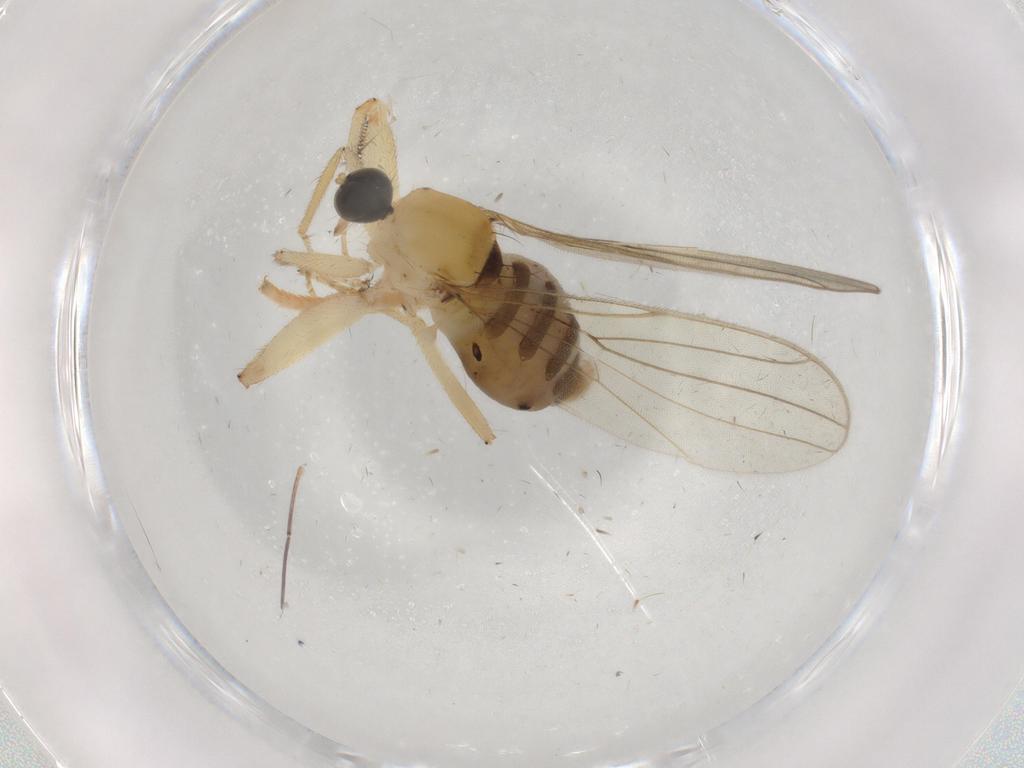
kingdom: Animalia
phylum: Arthropoda
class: Insecta
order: Diptera
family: Hybotidae
